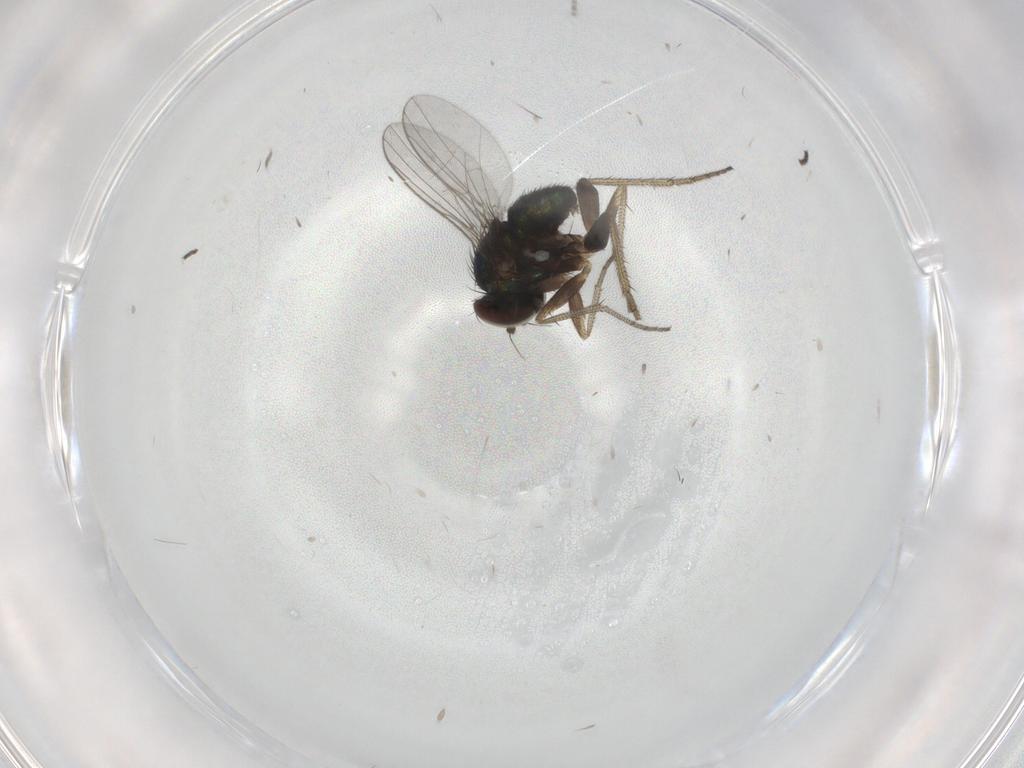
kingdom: Animalia
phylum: Arthropoda
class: Insecta
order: Diptera
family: Dolichopodidae
